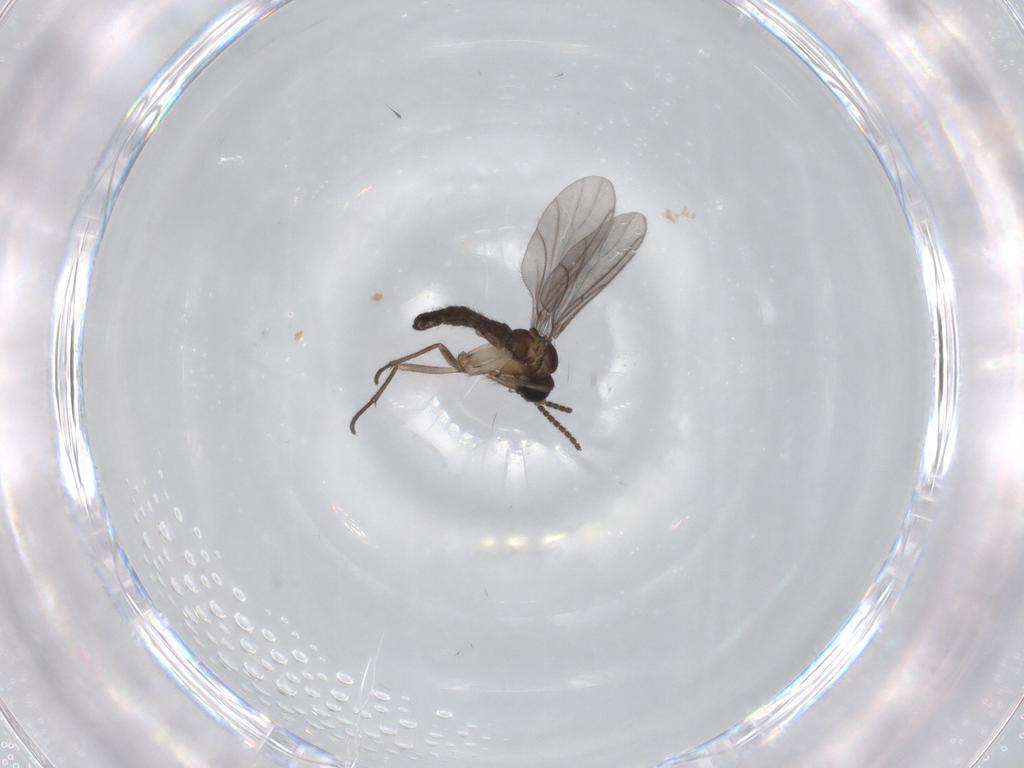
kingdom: Animalia
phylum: Arthropoda
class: Insecta
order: Diptera
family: Sciaridae
